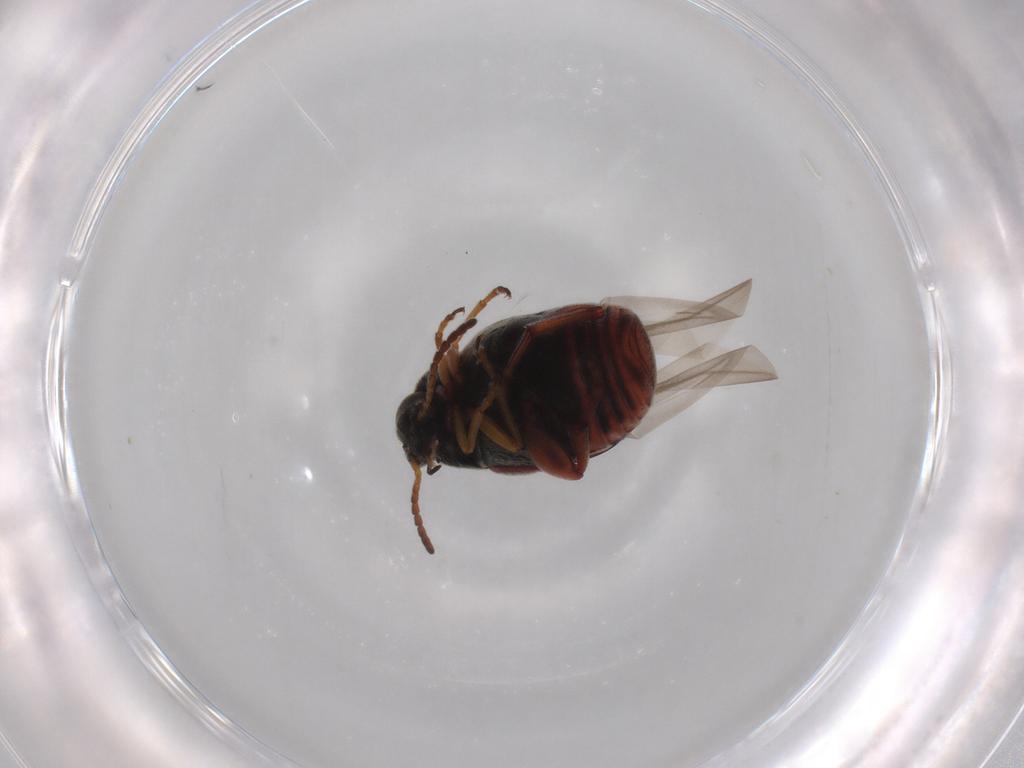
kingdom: Animalia
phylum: Arthropoda
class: Insecta
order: Coleoptera
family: Chrysomelidae
